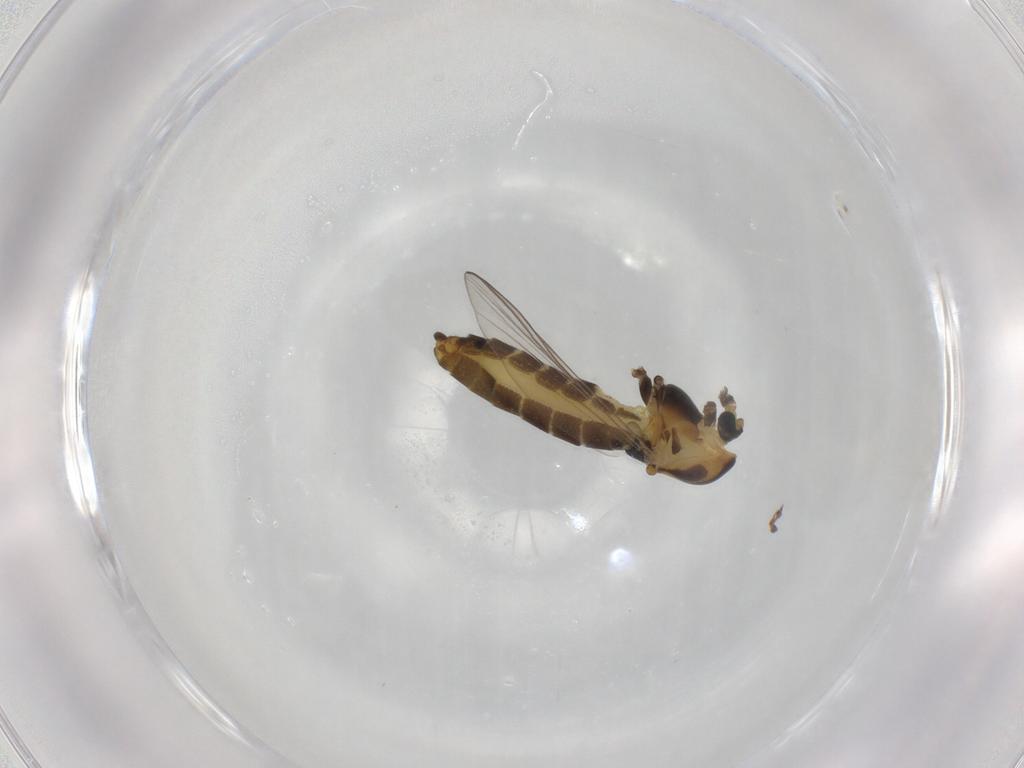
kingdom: Animalia
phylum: Arthropoda
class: Insecta
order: Diptera
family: Chironomidae
